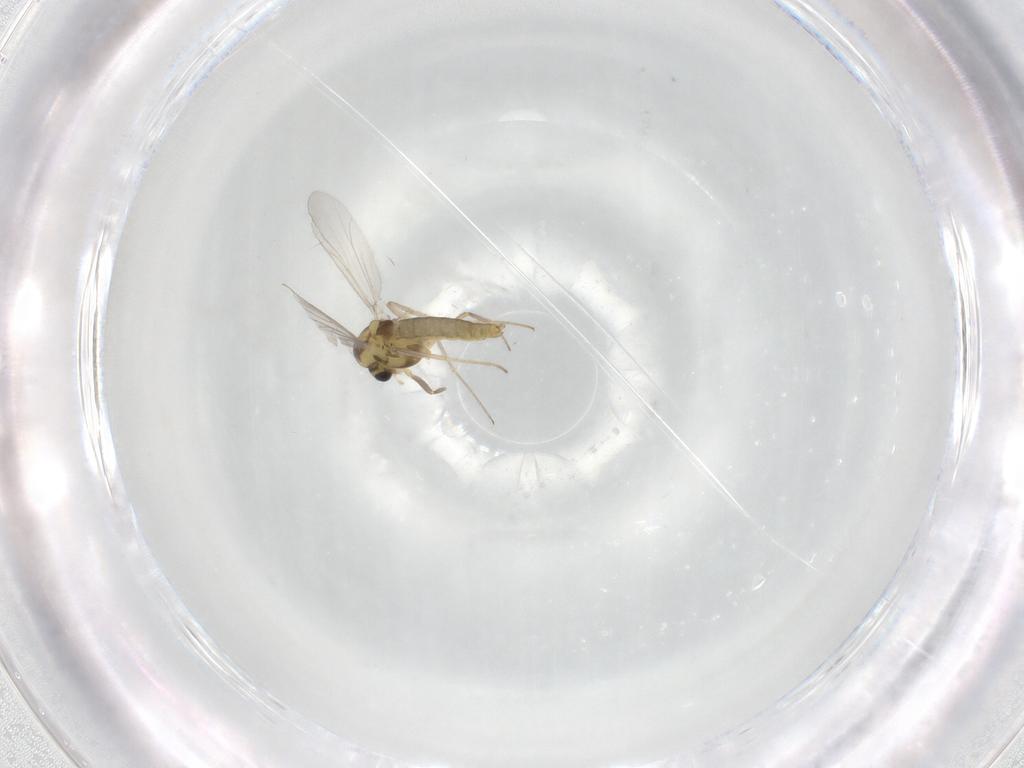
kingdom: Animalia
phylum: Arthropoda
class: Insecta
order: Diptera
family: Chironomidae
